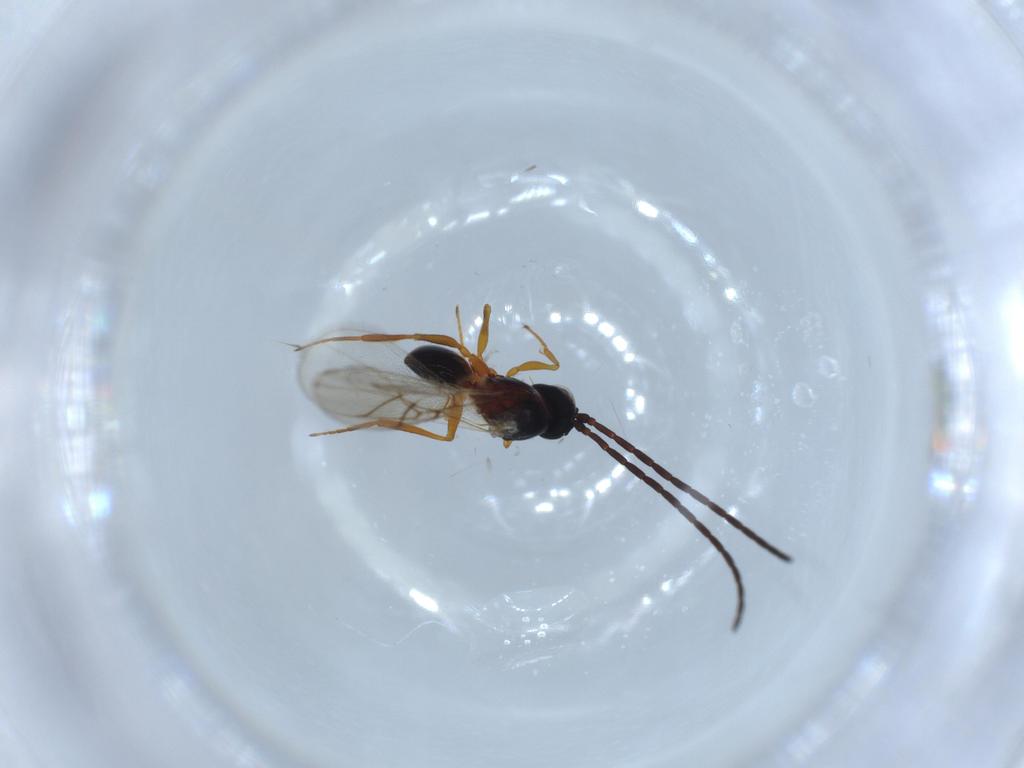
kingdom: Animalia
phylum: Arthropoda
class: Insecta
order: Hymenoptera
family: Figitidae
